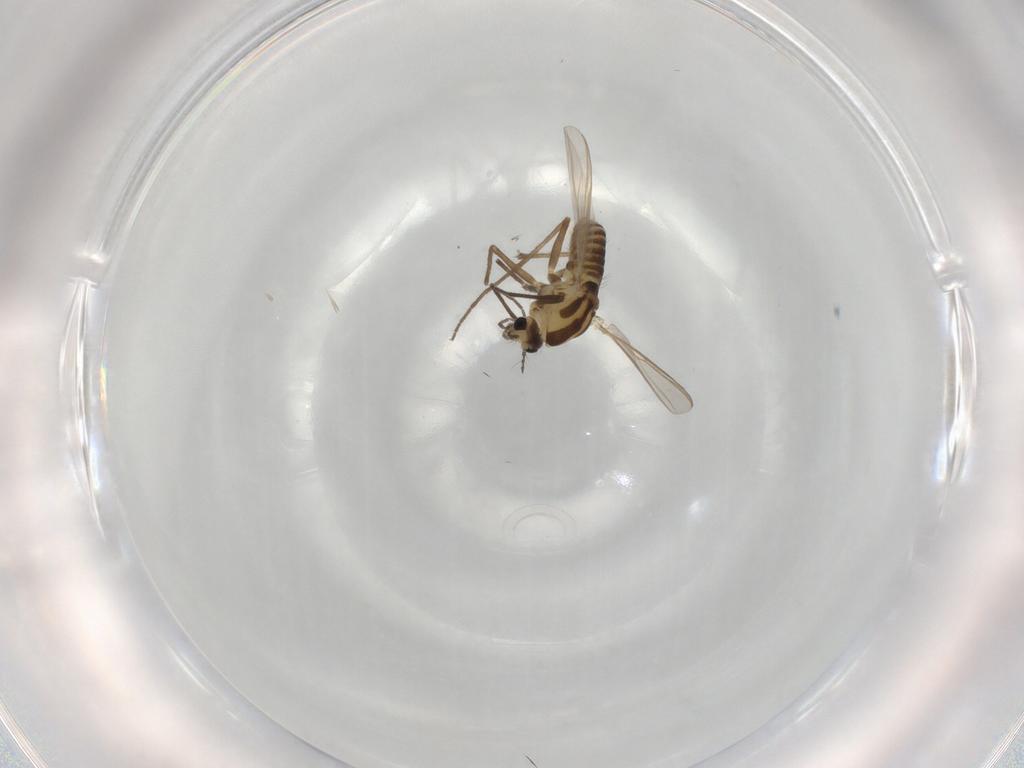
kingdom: Animalia
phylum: Arthropoda
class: Insecta
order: Diptera
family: Chironomidae
